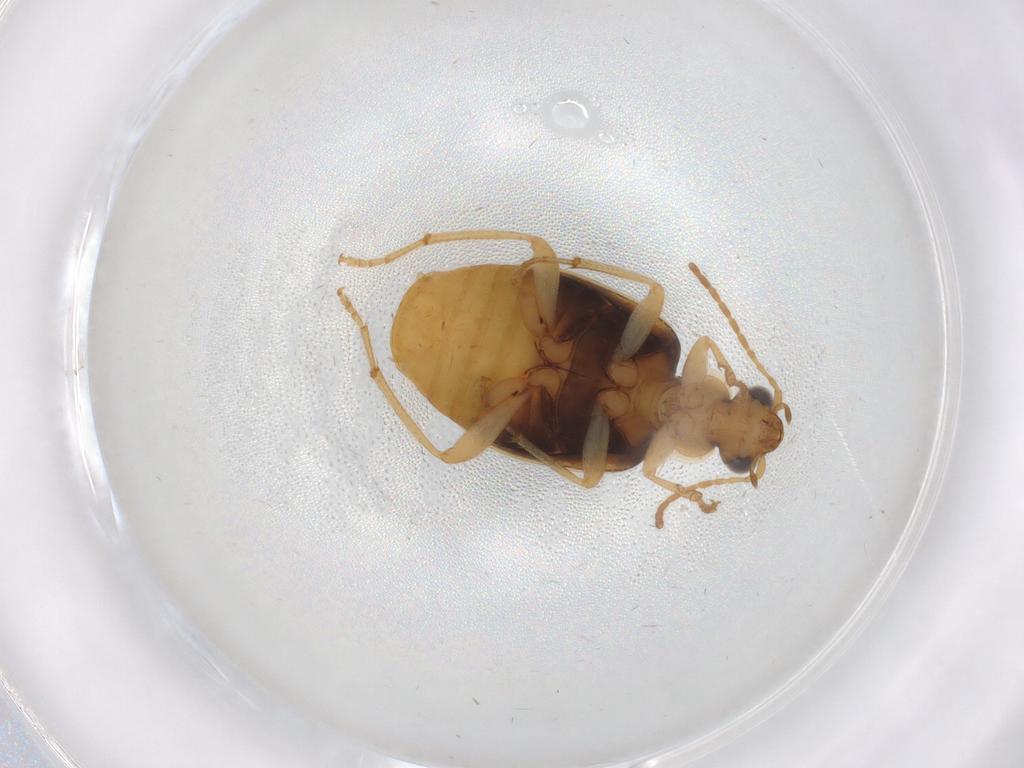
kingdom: Animalia
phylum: Arthropoda
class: Insecta
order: Coleoptera
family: Carabidae
